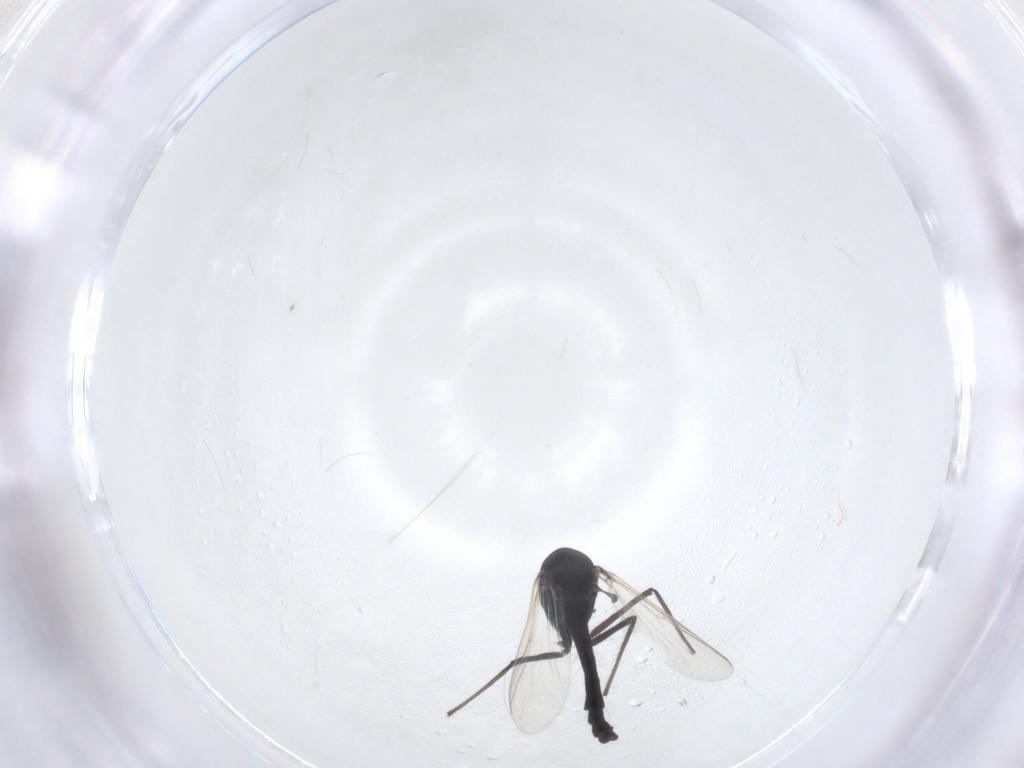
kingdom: Animalia
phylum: Arthropoda
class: Insecta
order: Diptera
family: Chironomidae
